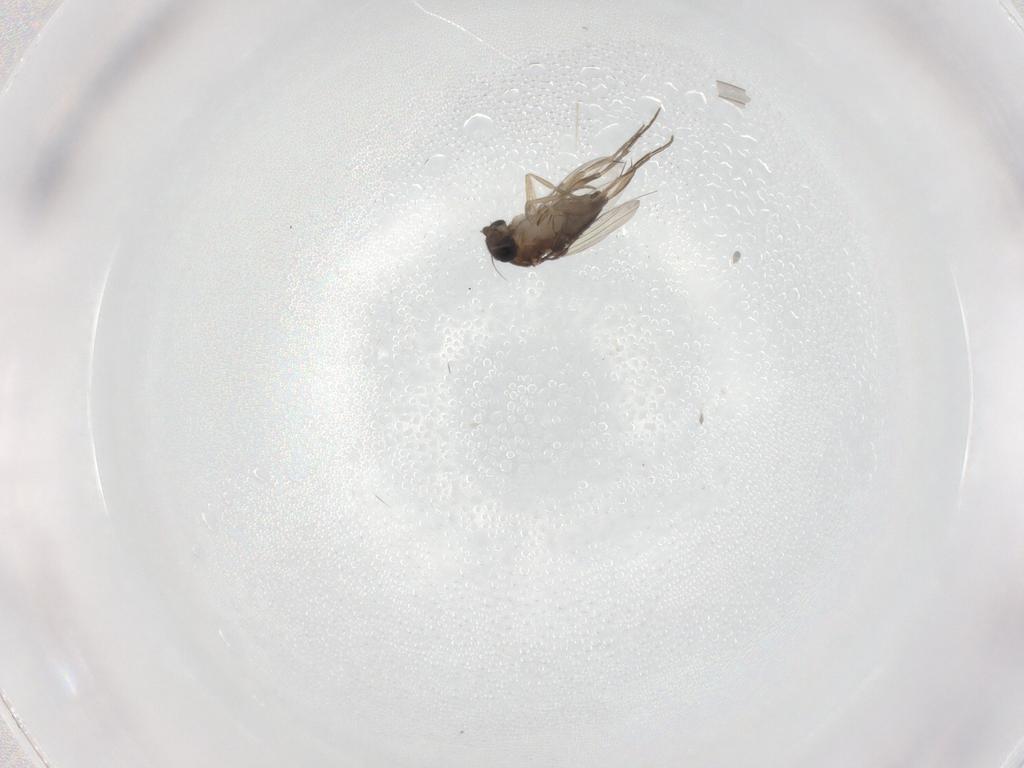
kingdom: Animalia
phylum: Arthropoda
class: Insecta
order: Diptera
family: Phoridae
